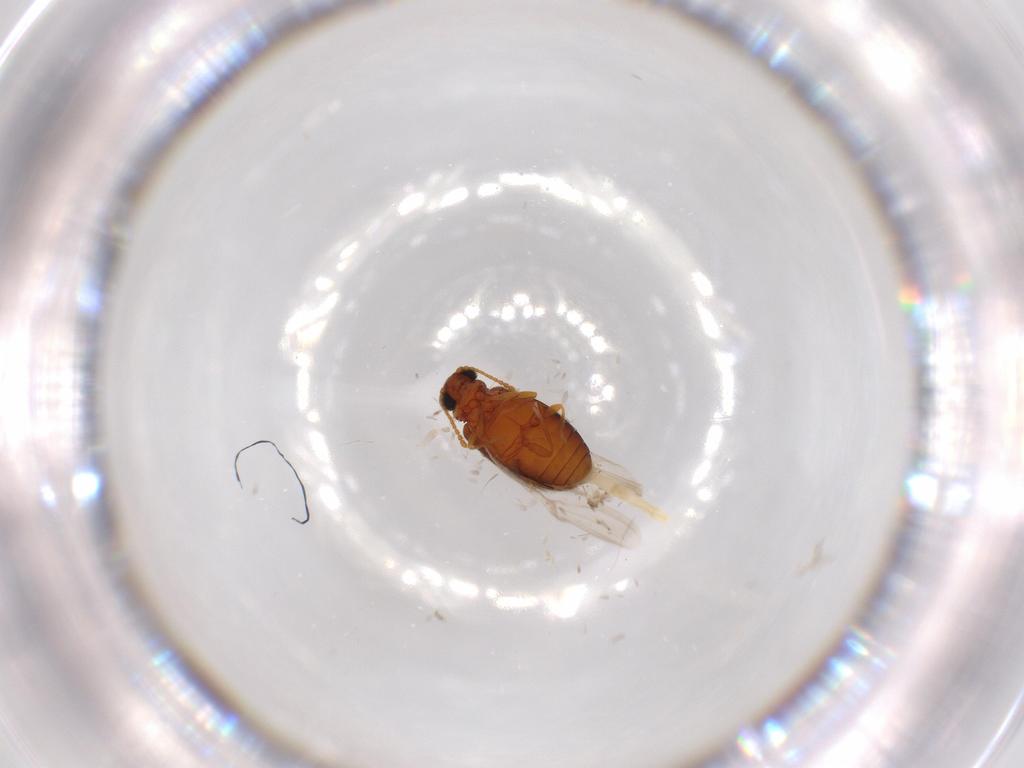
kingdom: Animalia
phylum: Arthropoda
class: Insecta
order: Coleoptera
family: Aderidae
